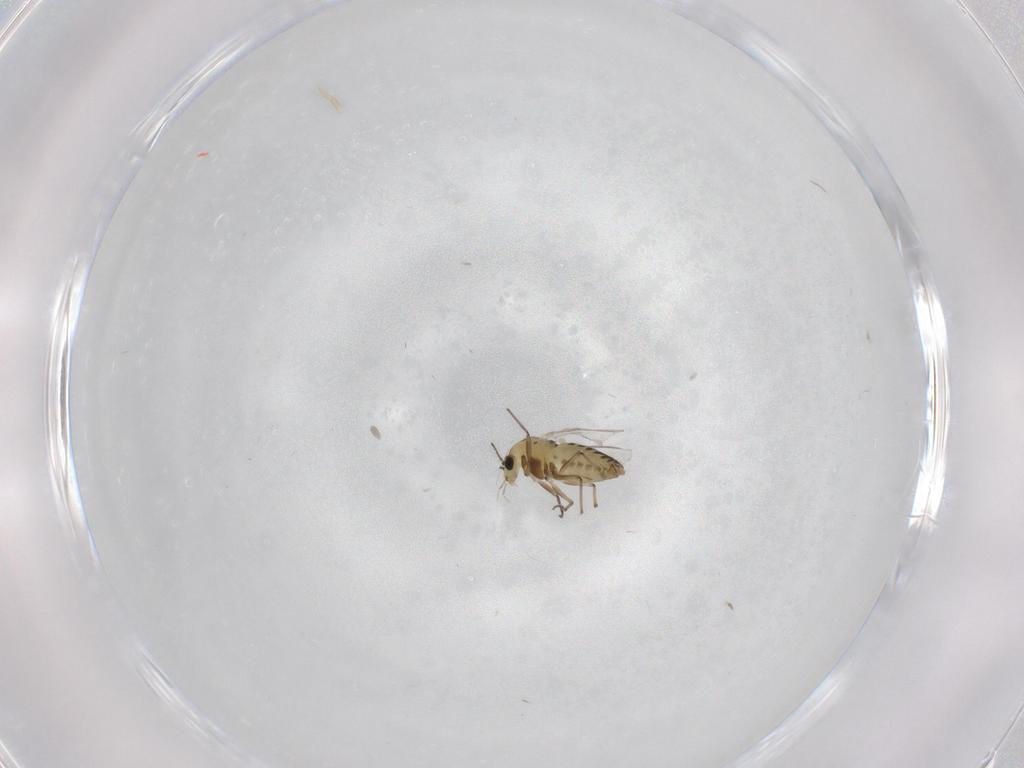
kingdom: Animalia
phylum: Arthropoda
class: Insecta
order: Diptera
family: Chironomidae
